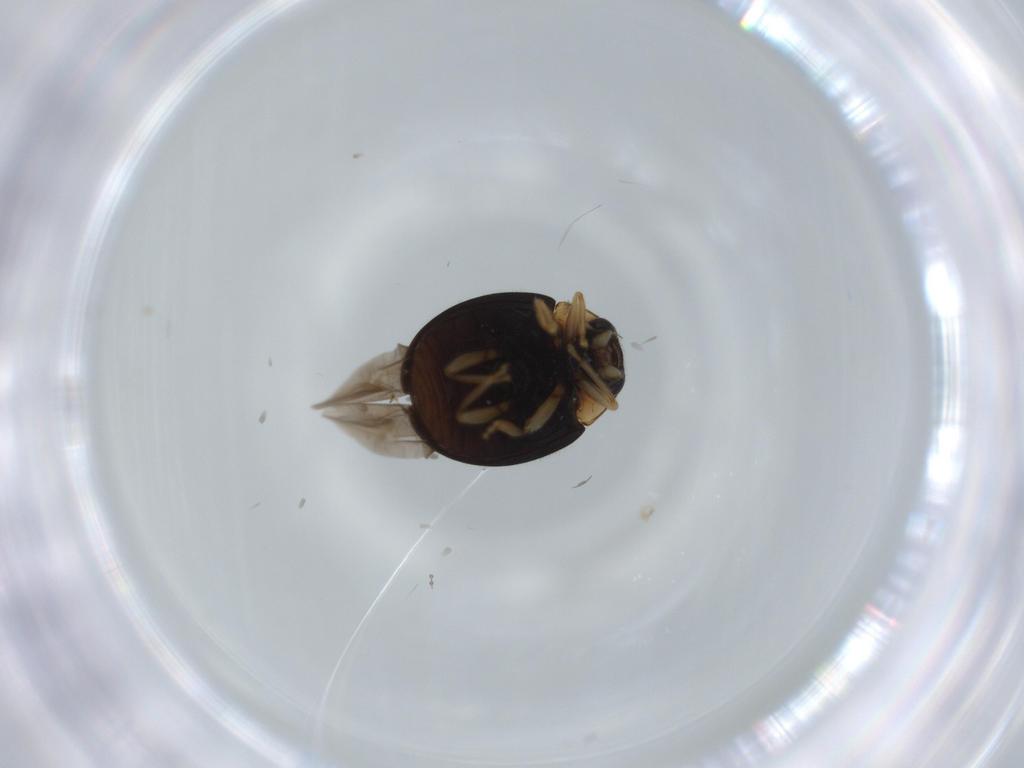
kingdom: Animalia
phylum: Arthropoda
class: Insecta
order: Coleoptera
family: Coccinellidae
